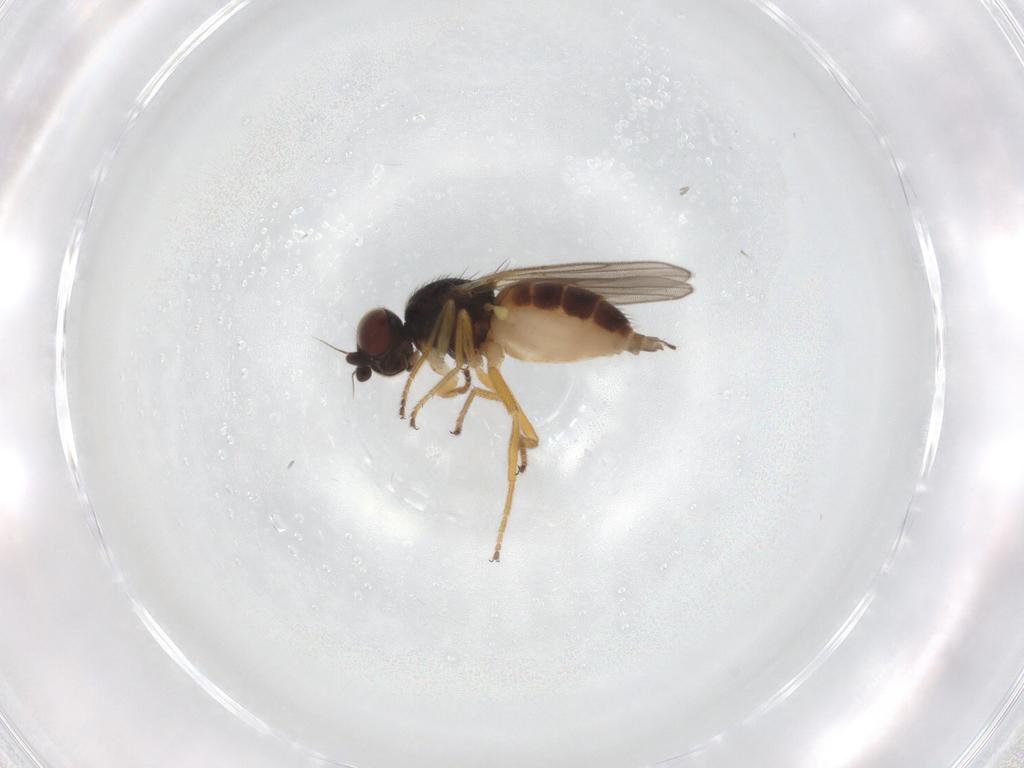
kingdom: Animalia
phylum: Arthropoda
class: Insecta
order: Diptera
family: Chloropidae
